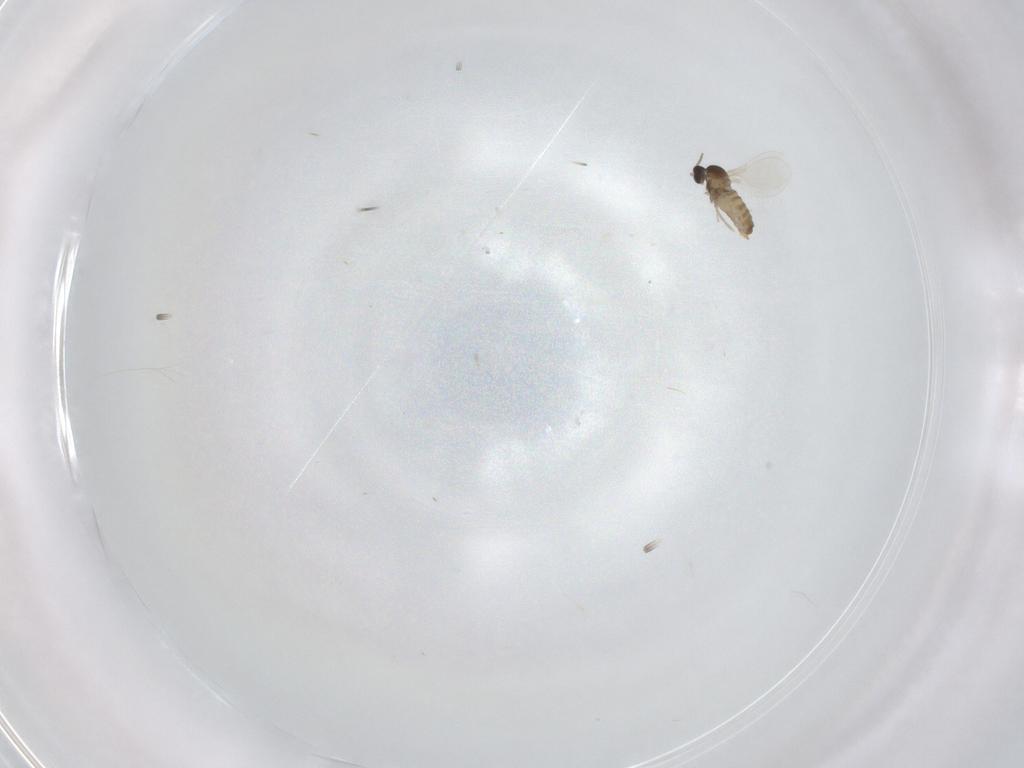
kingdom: Animalia
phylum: Arthropoda
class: Insecta
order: Diptera
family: Cecidomyiidae
